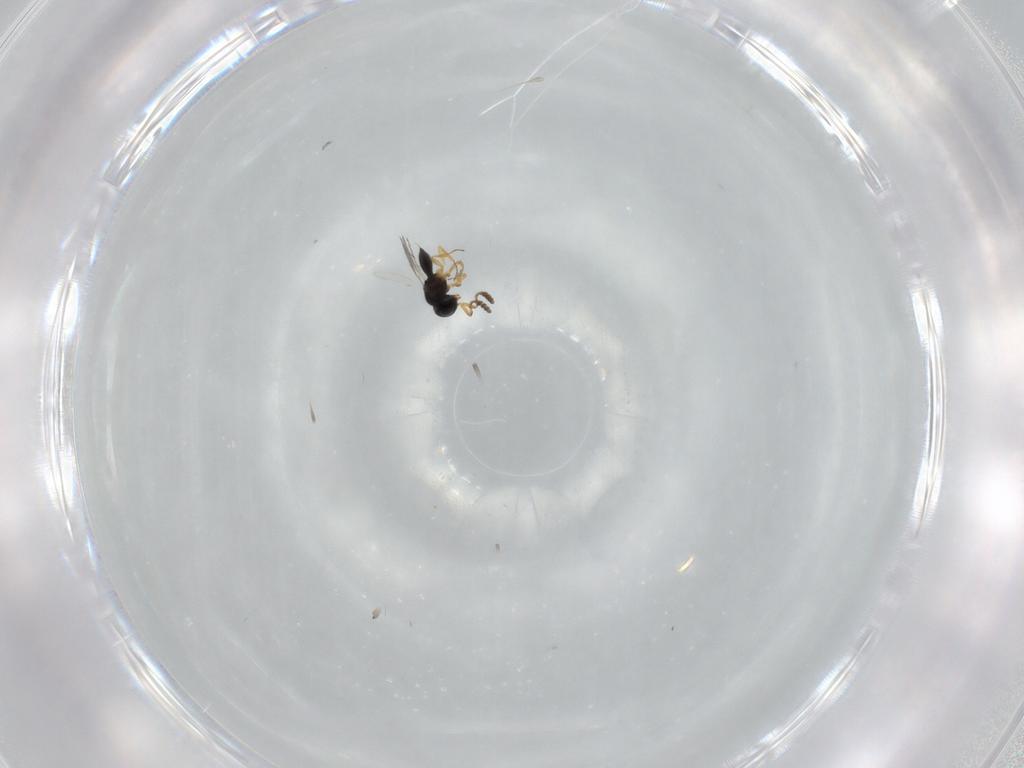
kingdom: Animalia
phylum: Arthropoda
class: Insecta
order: Hymenoptera
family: Scelionidae
